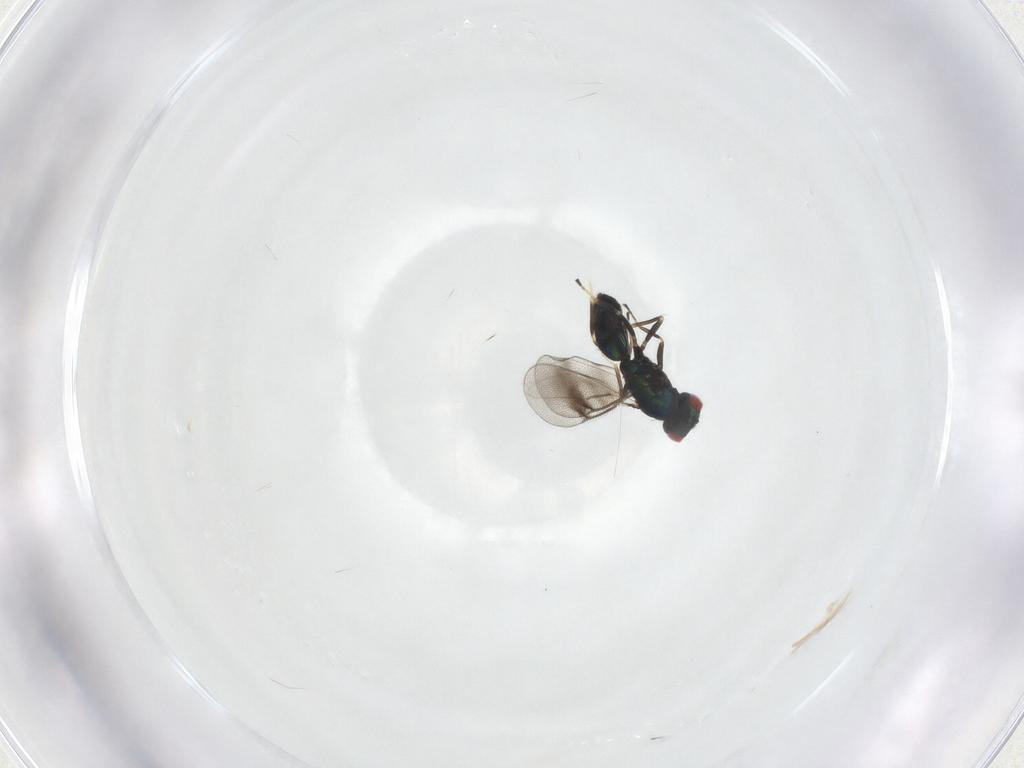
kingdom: Animalia
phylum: Arthropoda
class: Insecta
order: Hymenoptera
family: Eulophidae
